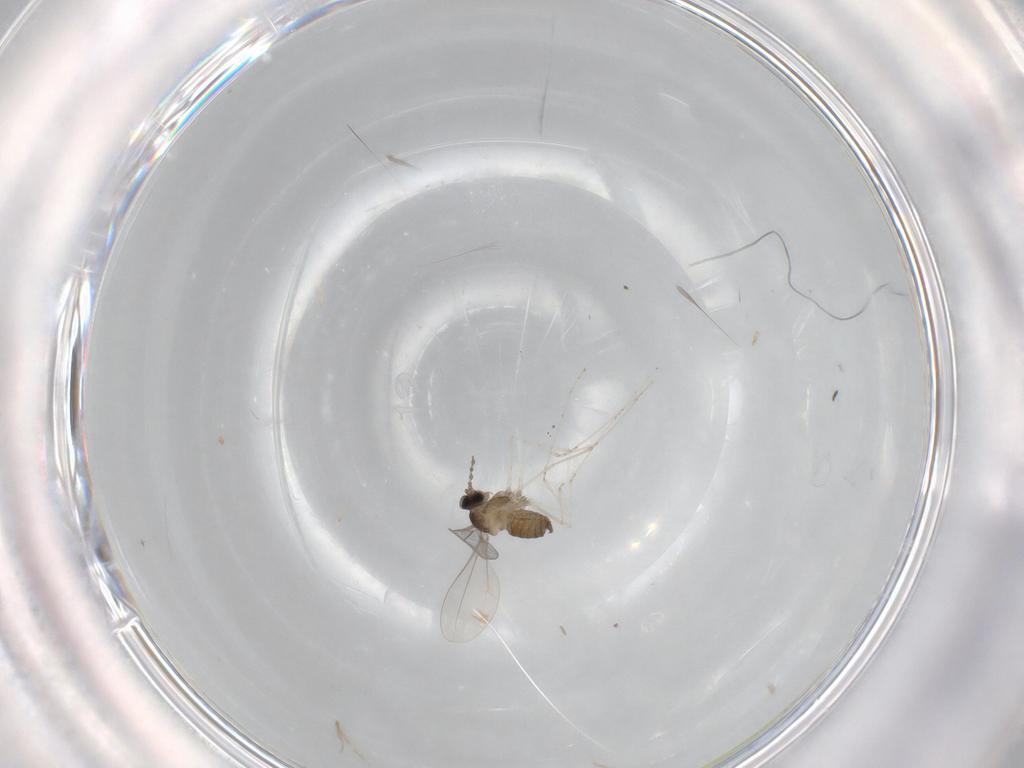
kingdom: Animalia
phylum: Arthropoda
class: Insecta
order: Diptera
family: Cecidomyiidae
